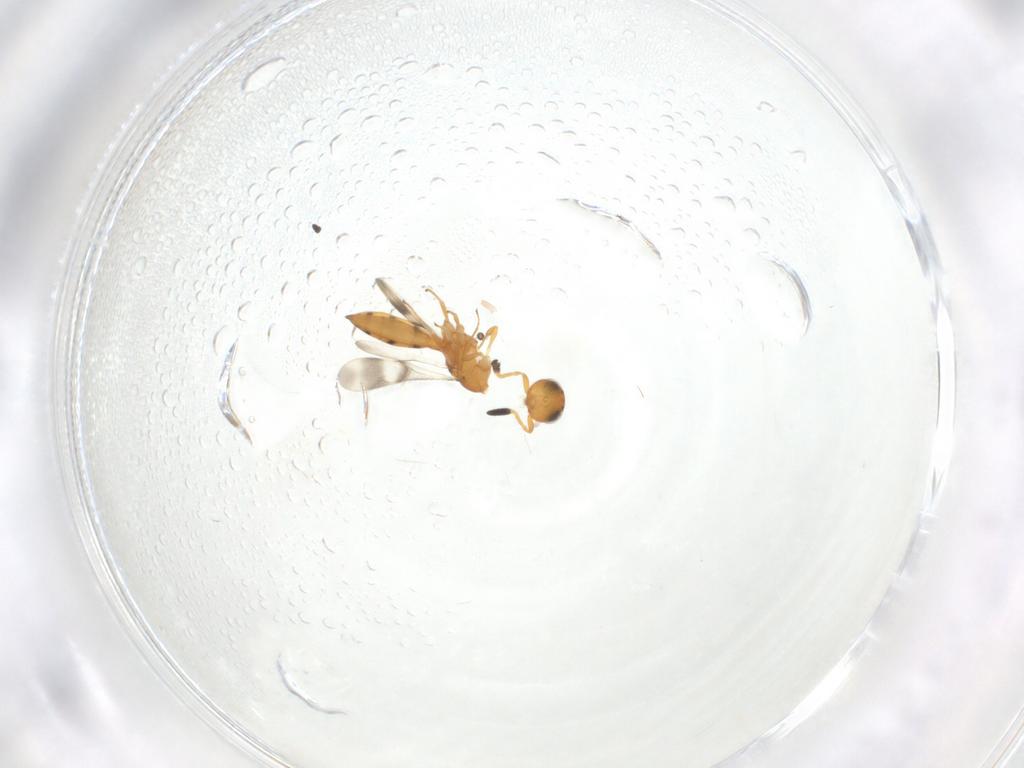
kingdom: Animalia
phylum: Arthropoda
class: Insecta
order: Hymenoptera
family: Scelionidae
